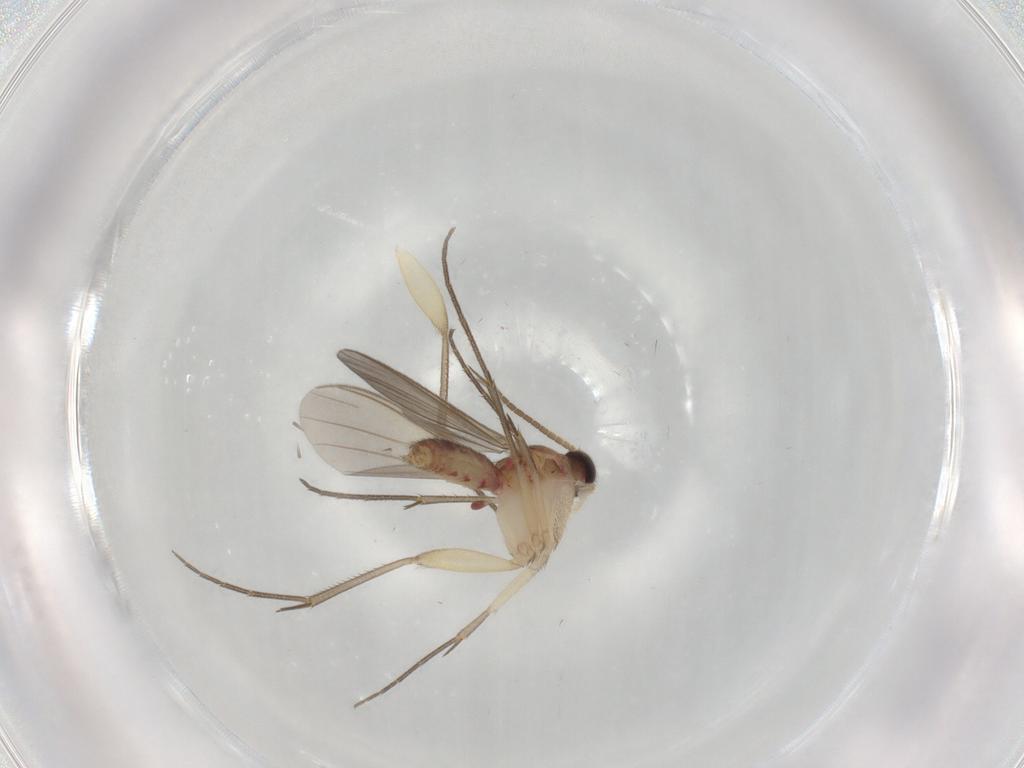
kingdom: Animalia
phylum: Arthropoda
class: Insecta
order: Diptera
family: Mycetophilidae
